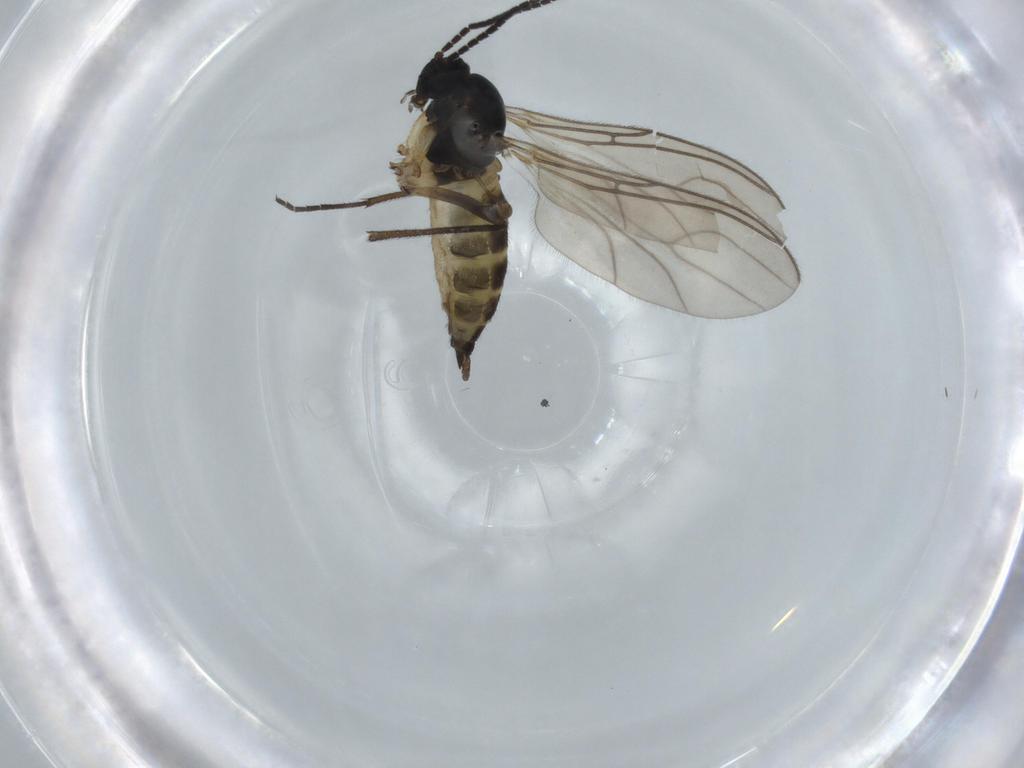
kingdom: Animalia
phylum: Arthropoda
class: Insecta
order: Diptera
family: Sciaridae
